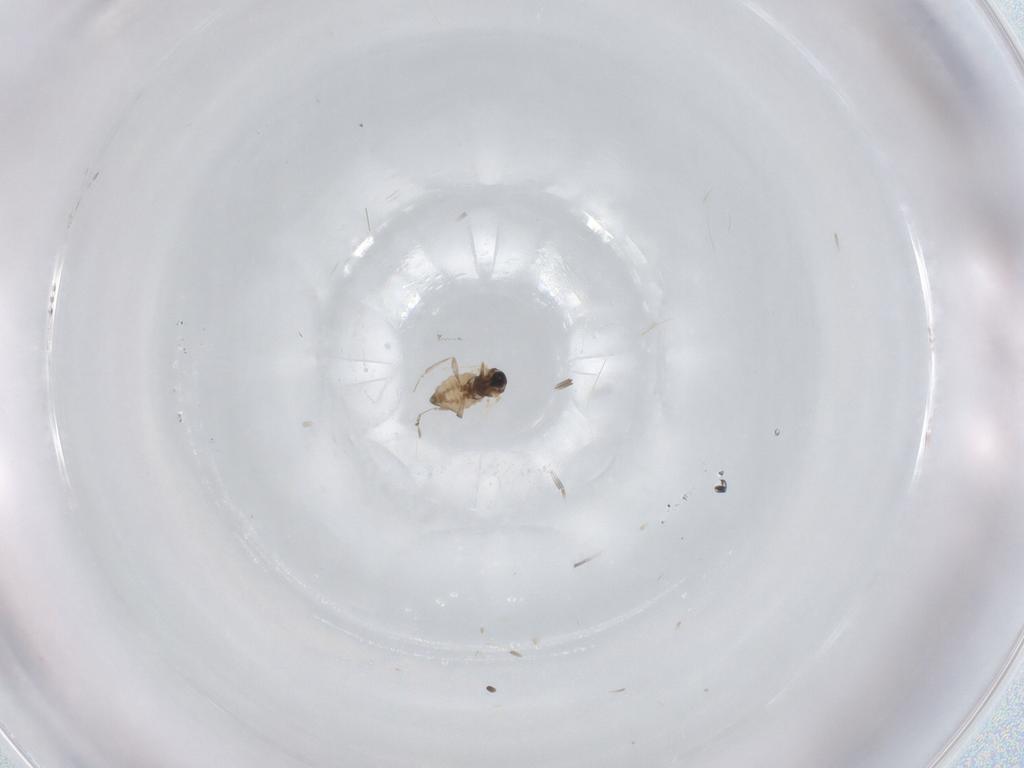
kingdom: Animalia
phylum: Arthropoda
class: Insecta
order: Diptera
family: Cecidomyiidae
